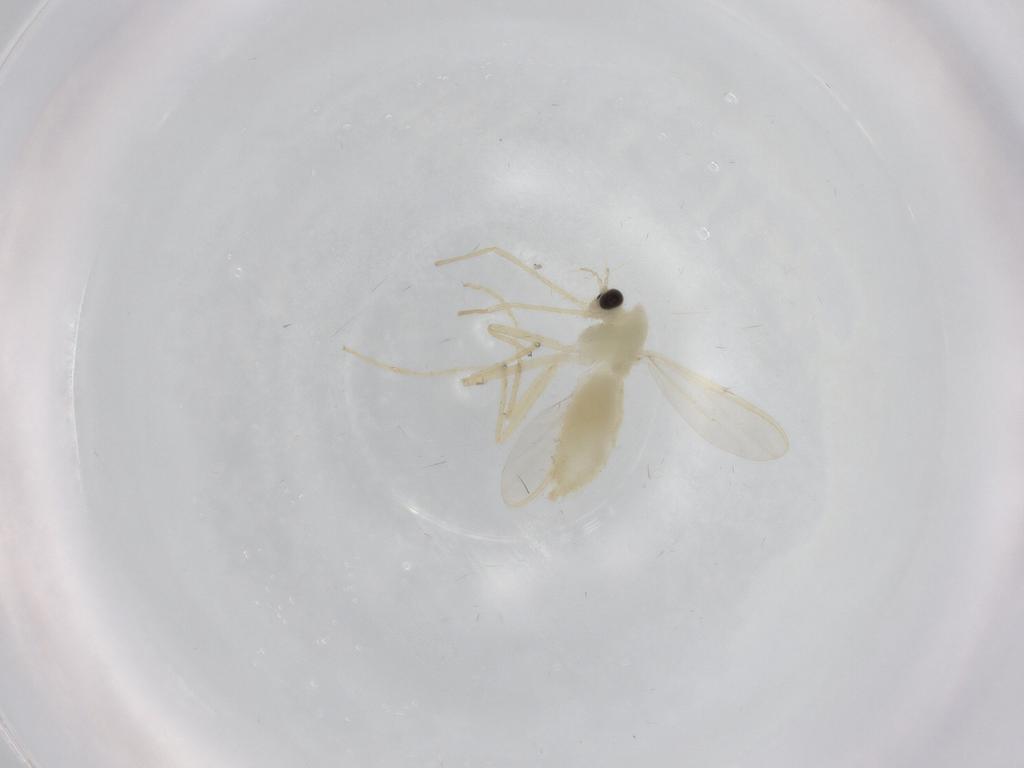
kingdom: Animalia
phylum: Arthropoda
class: Insecta
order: Diptera
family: Chironomidae
